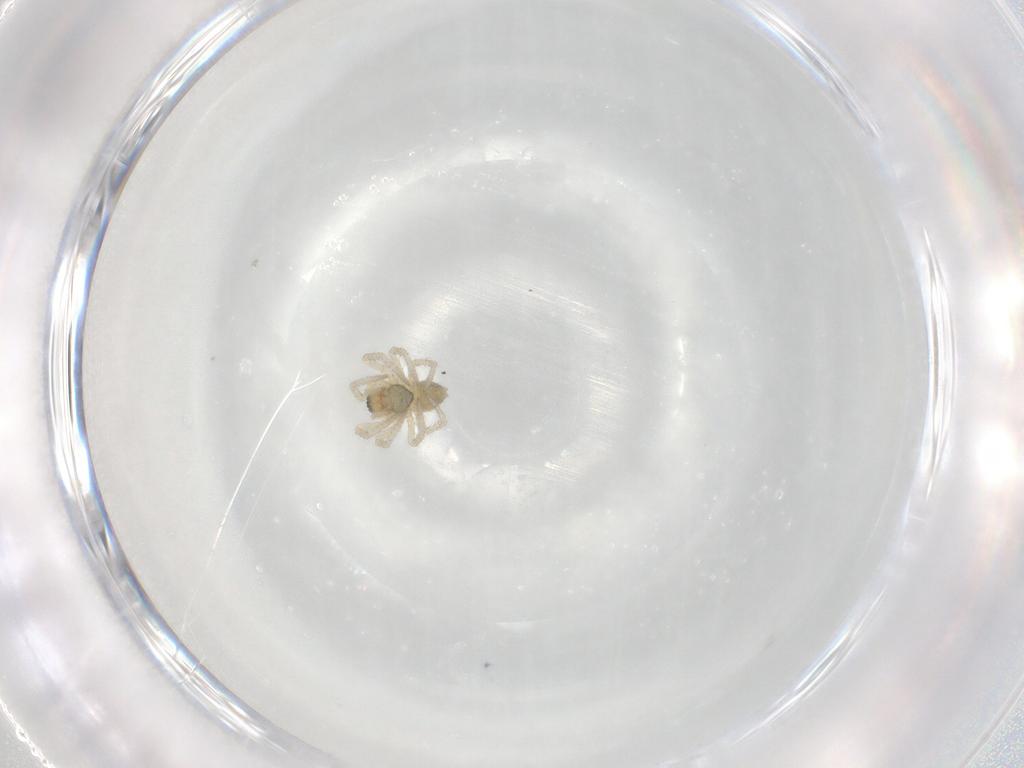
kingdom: Animalia
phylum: Arthropoda
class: Arachnida
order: Araneae
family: Linyphiidae
